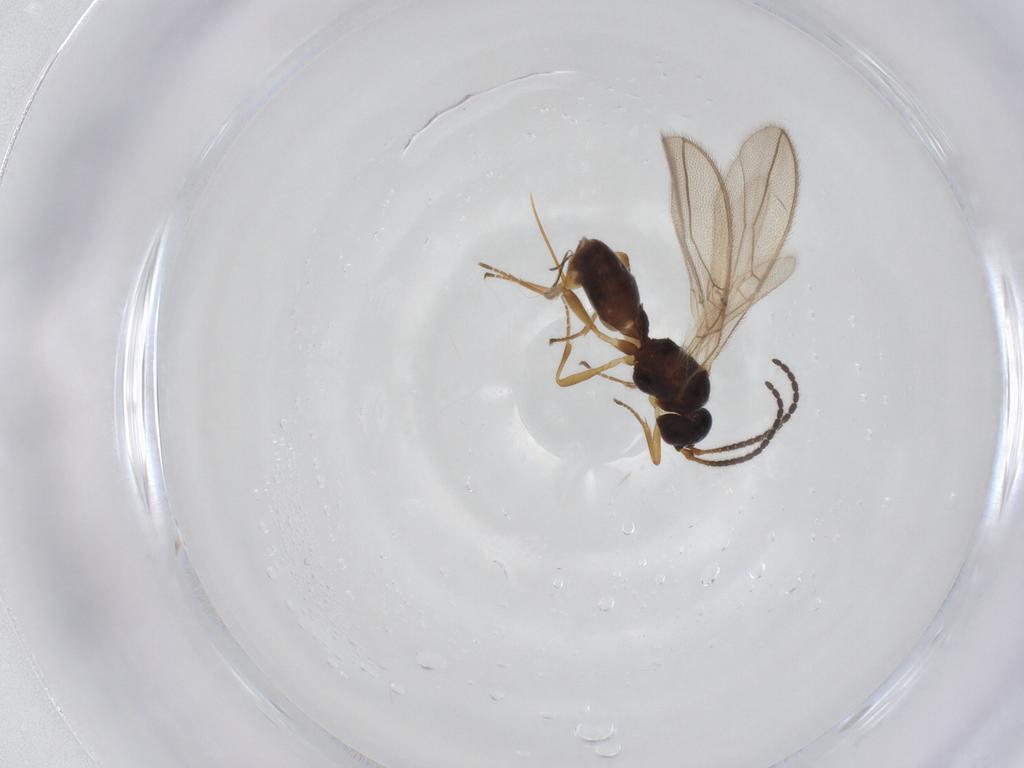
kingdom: Animalia
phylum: Arthropoda
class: Insecta
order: Hymenoptera
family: Braconidae
